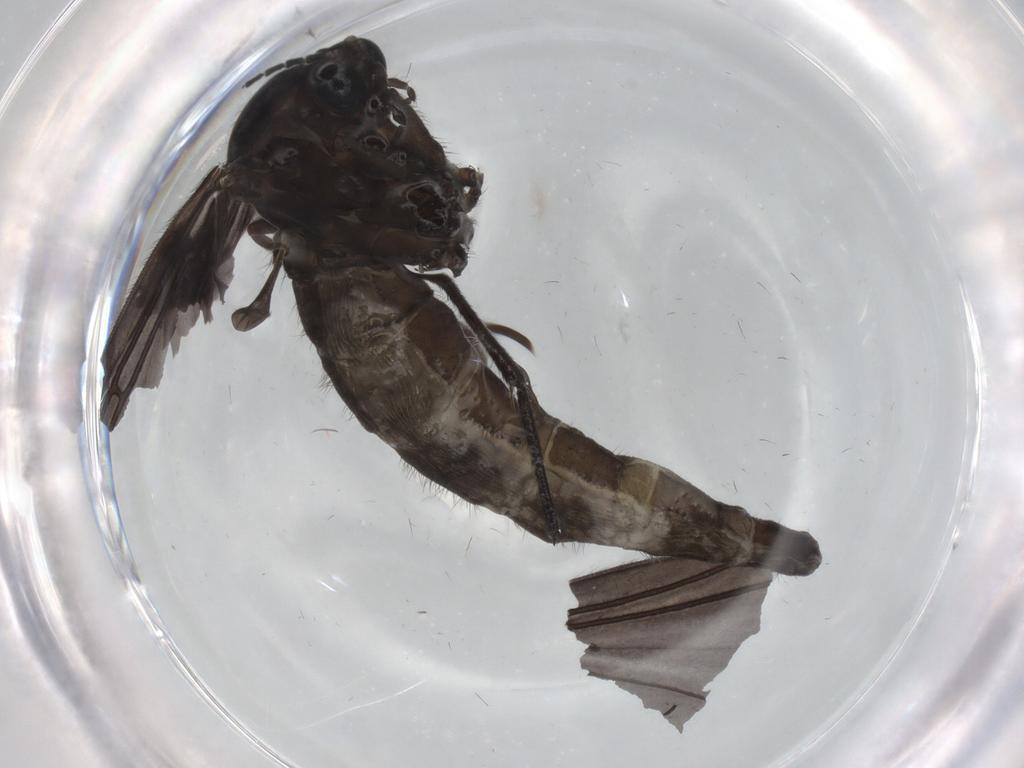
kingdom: Animalia
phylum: Arthropoda
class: Insecta
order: Diptera
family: Sciaridae
